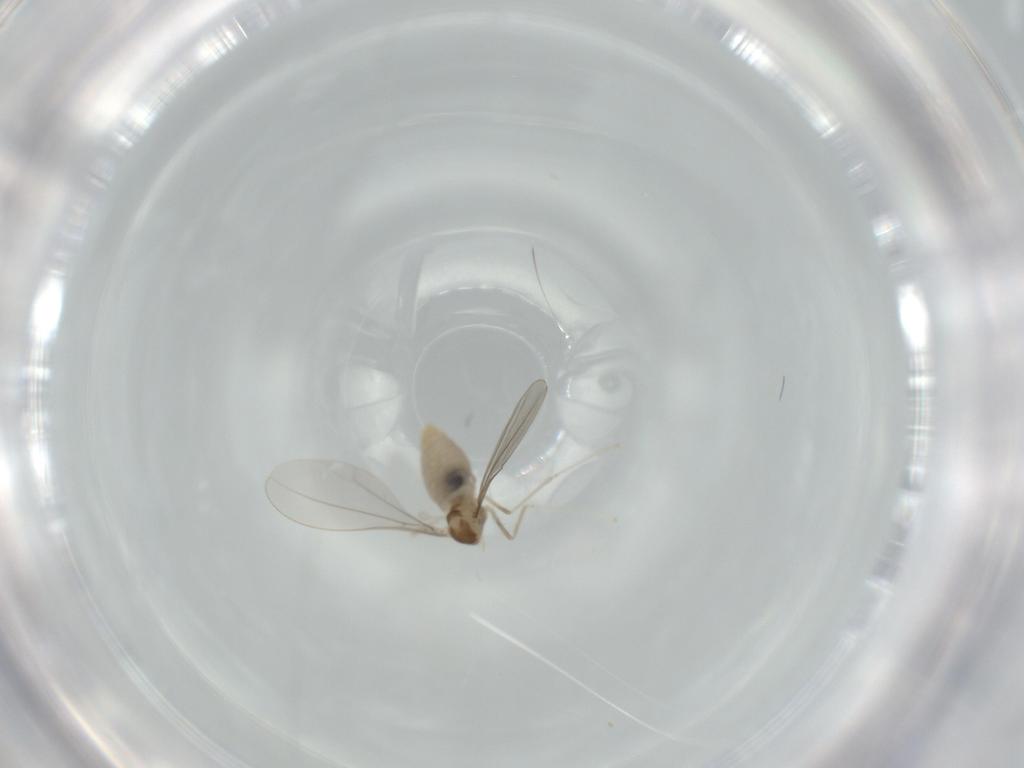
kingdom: Animalia
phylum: Arthropoda
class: Insecta
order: Diptera
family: Cecidomyiidae
